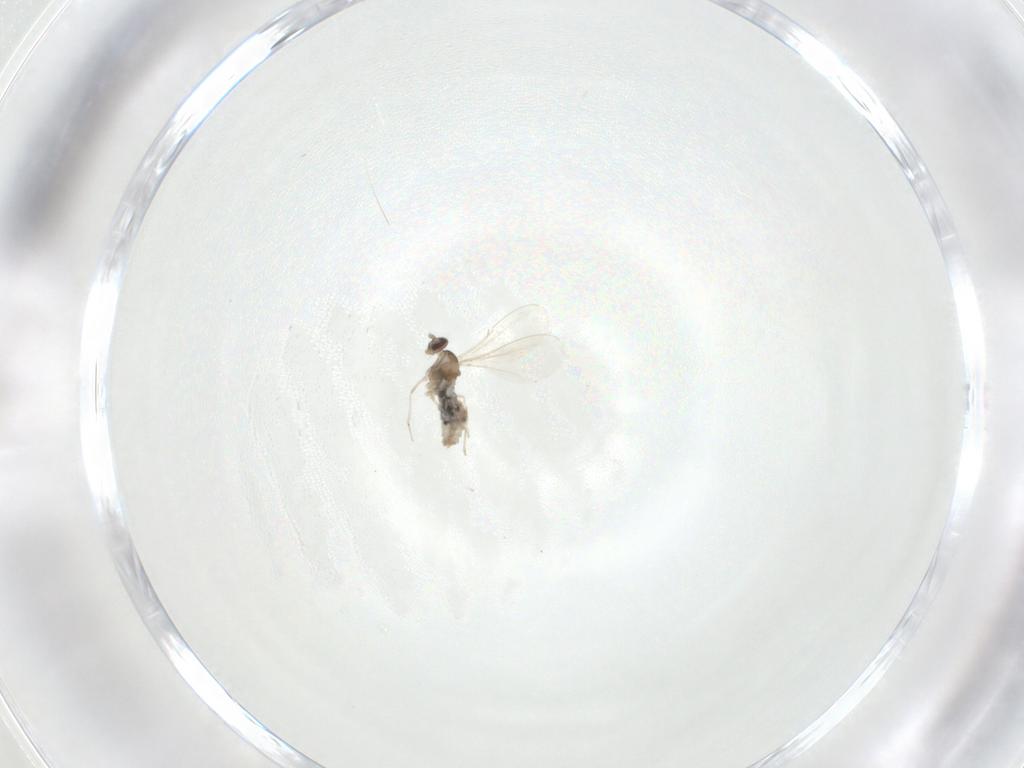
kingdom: Animalia
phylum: Arthropoda
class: Insecta
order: Diptera
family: Cecidomyiidae
